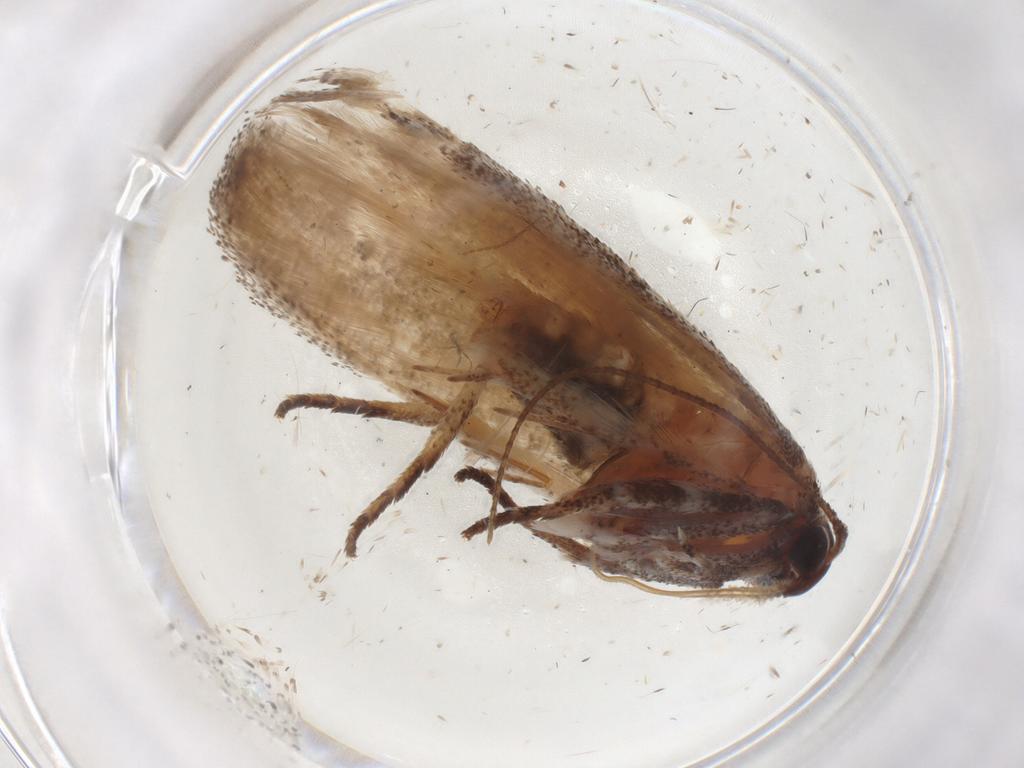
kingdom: Animalia
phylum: Arthropoda
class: Insecta
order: Lepidoptera
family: Cosmopterigidae
